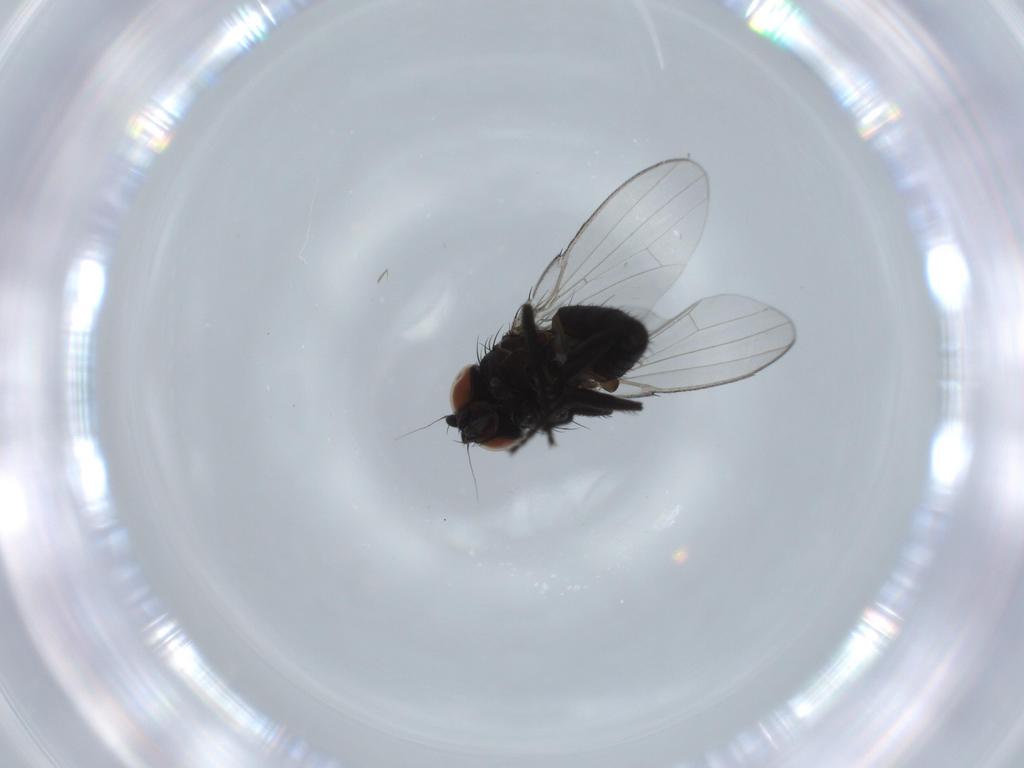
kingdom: Animalia
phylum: Arthropoda
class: Insecta
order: Diptera
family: Milichiidae
